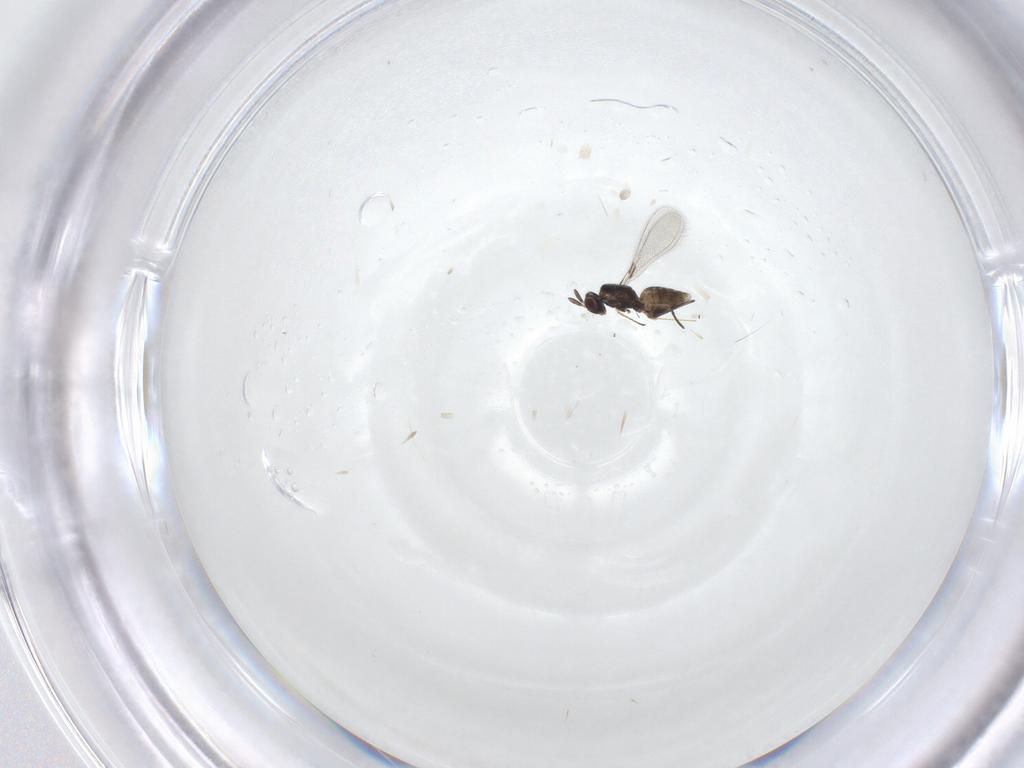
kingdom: Animalia
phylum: Arthropoda
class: Insecta
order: Hymenoptera
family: Mymaridae
